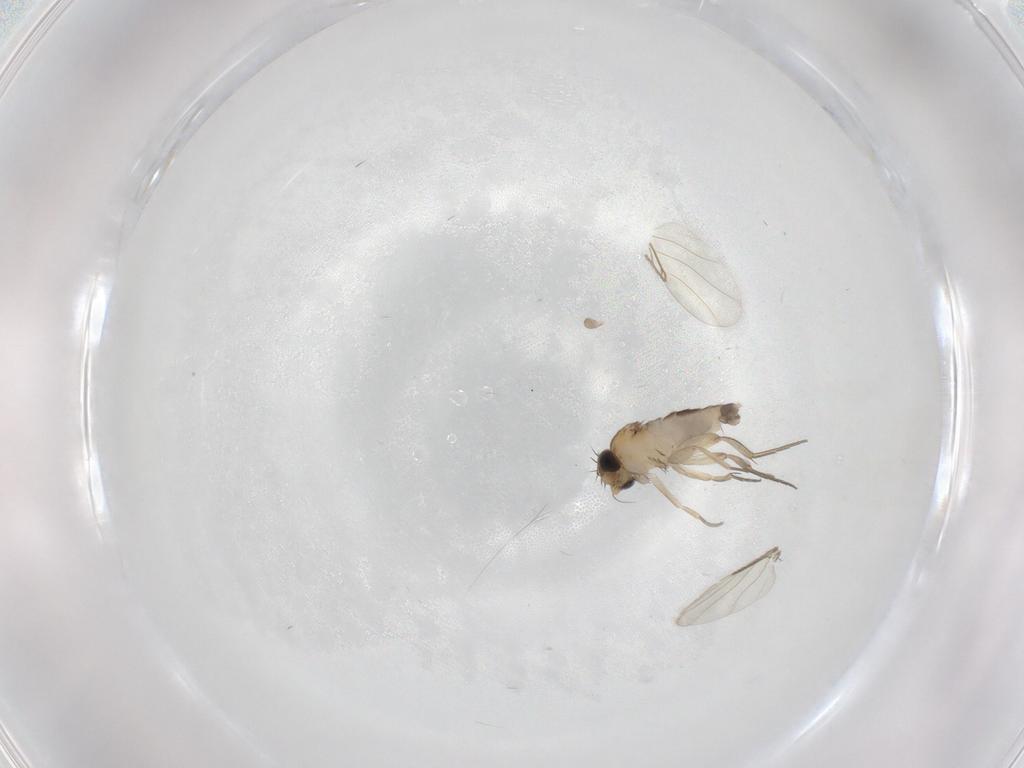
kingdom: Animalia
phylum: Arthropoda
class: Insecta
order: Diptera
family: Phoridae
